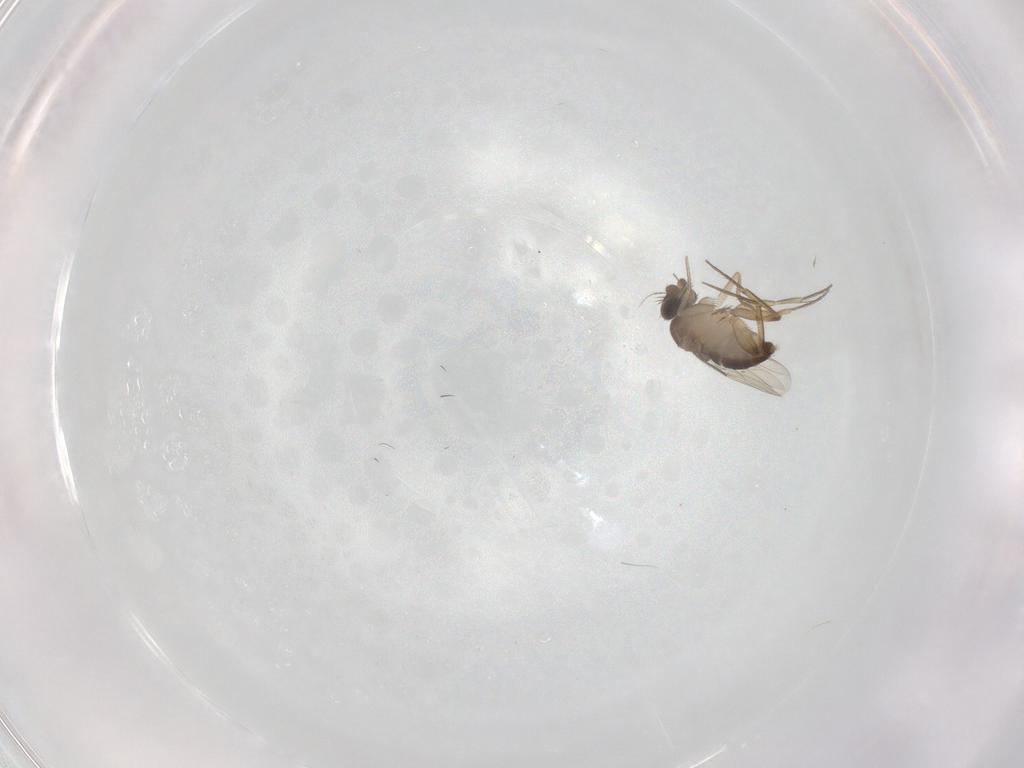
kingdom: Animalia
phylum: Arthropoda
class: Insecta
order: Diptera
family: Phoridae
